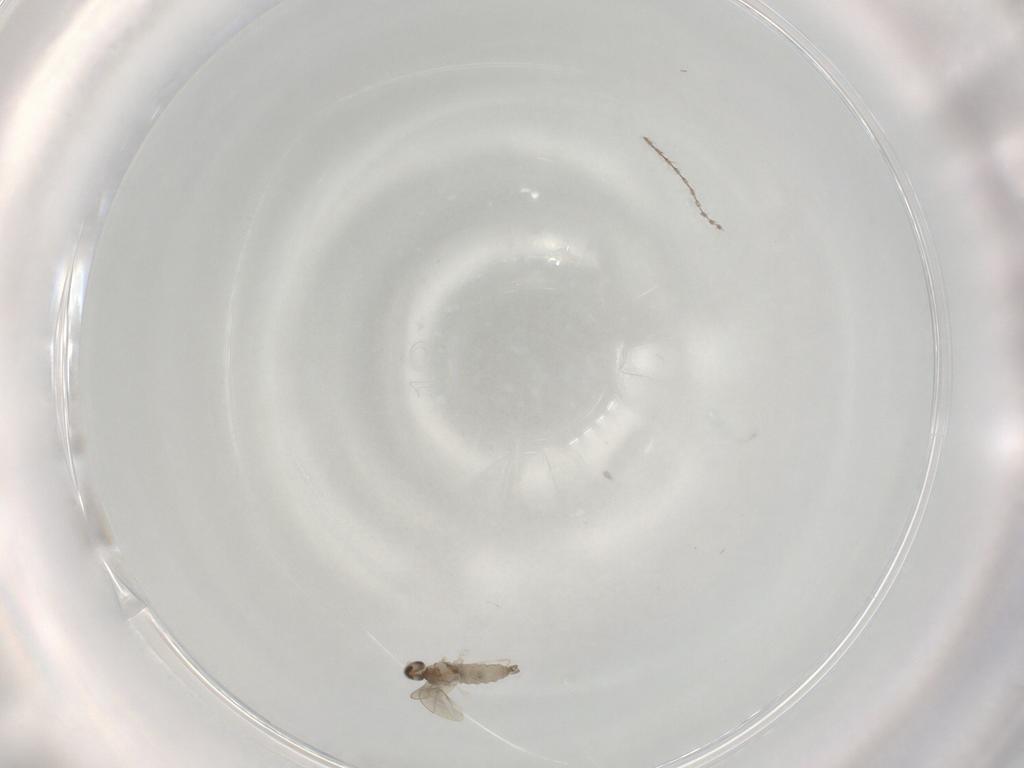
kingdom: Animalia
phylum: Arthropoda
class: Insecta
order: Diptera
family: Cecidomyiidae
